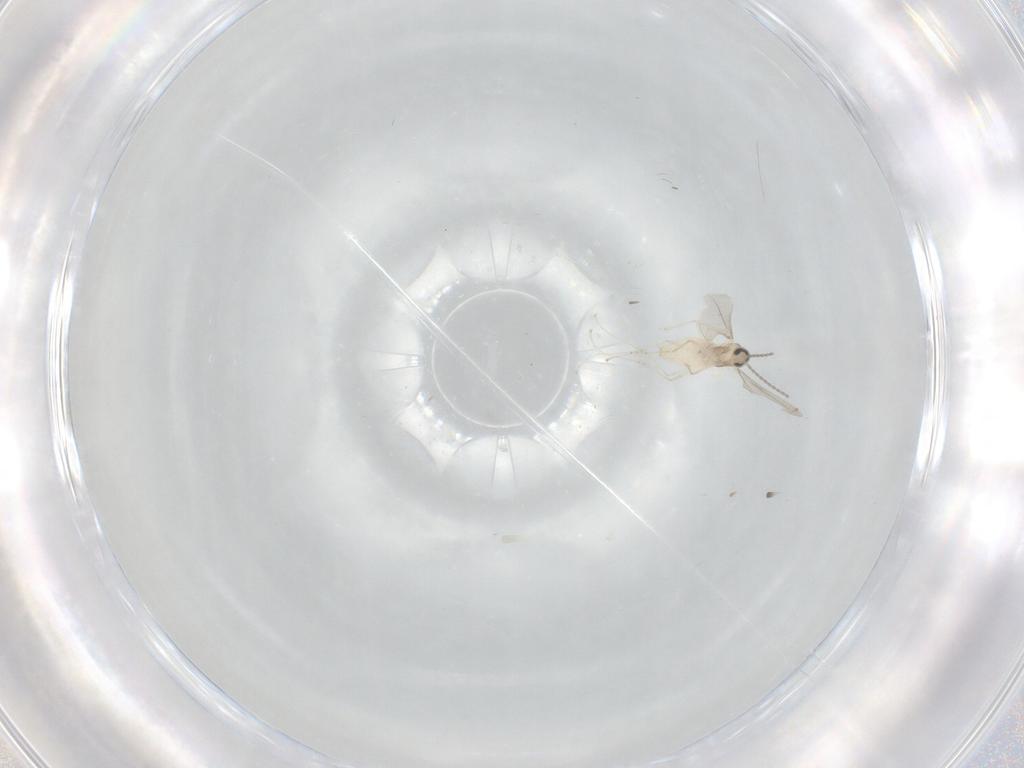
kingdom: Animalia
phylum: Arthropoda
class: Insecta
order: Diptera
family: Cecidomyiidae
